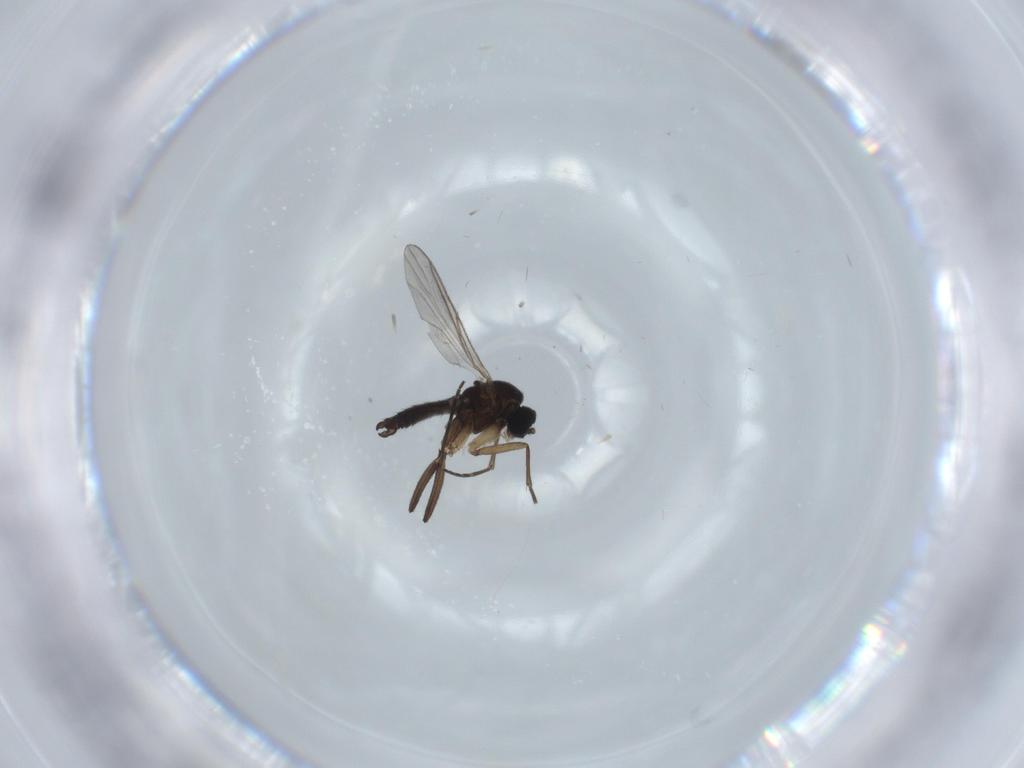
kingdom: Animalia
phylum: Arthropoda
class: Insecta
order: Diptera
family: Sciaridae
